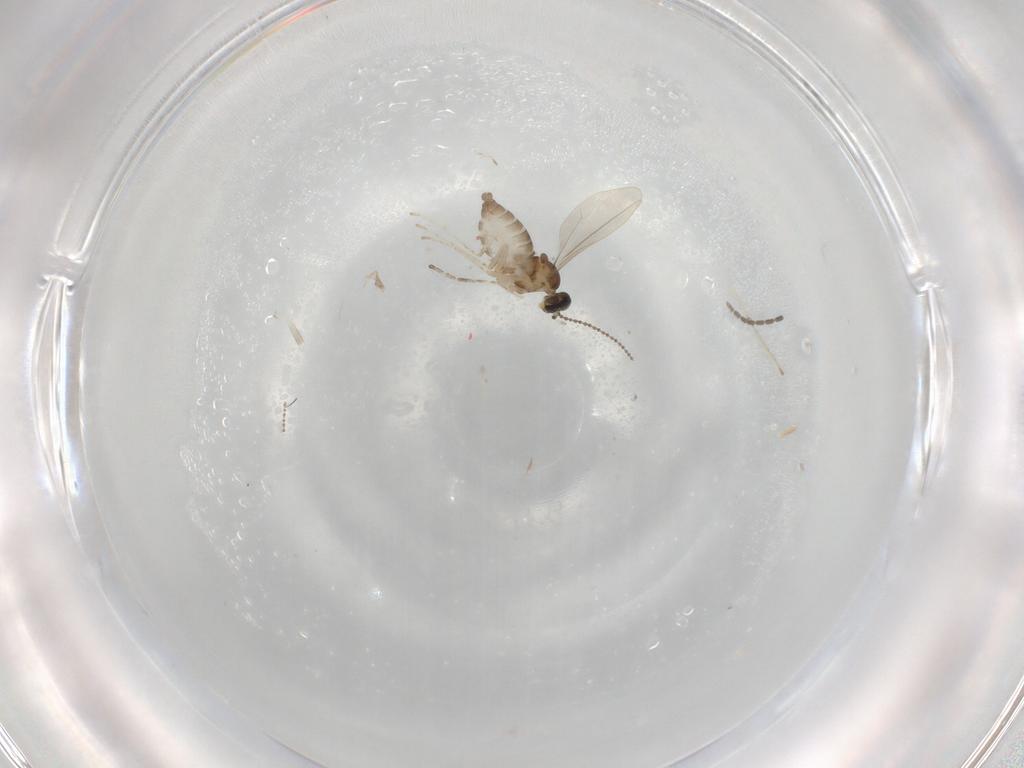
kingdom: Animalia
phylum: Arthropoda
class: Insecta
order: Diptera
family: Cecidomyiidae
